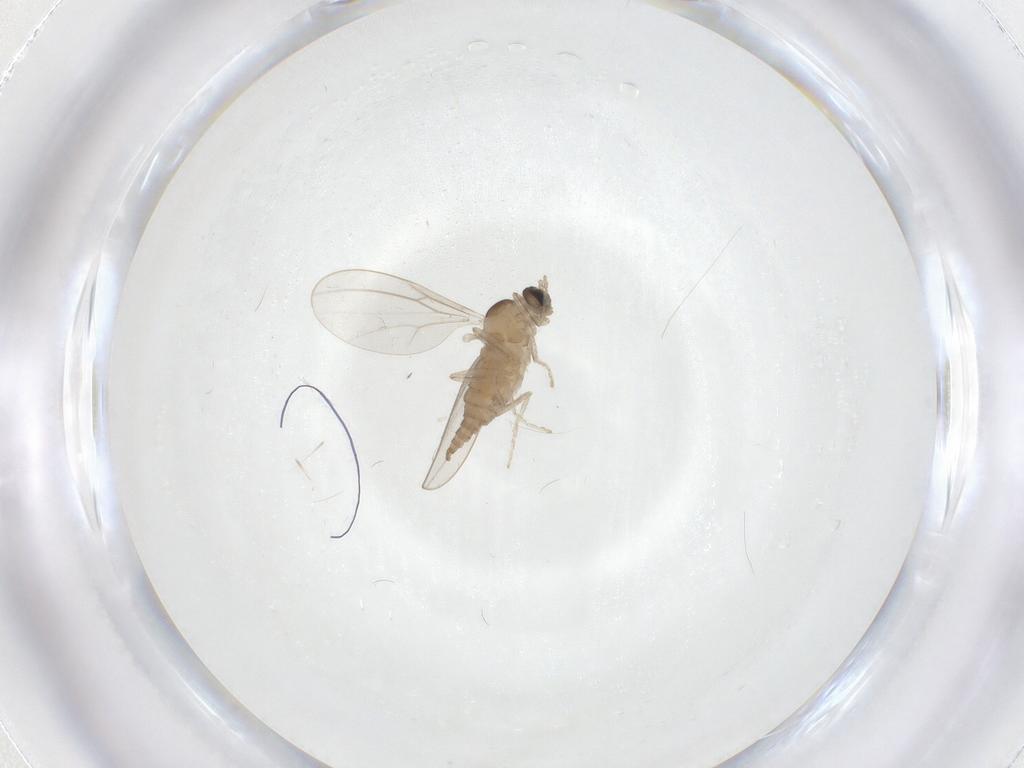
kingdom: Animalia
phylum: Arthropoda
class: Insecta
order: Diptera
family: Cecidomyiidae
